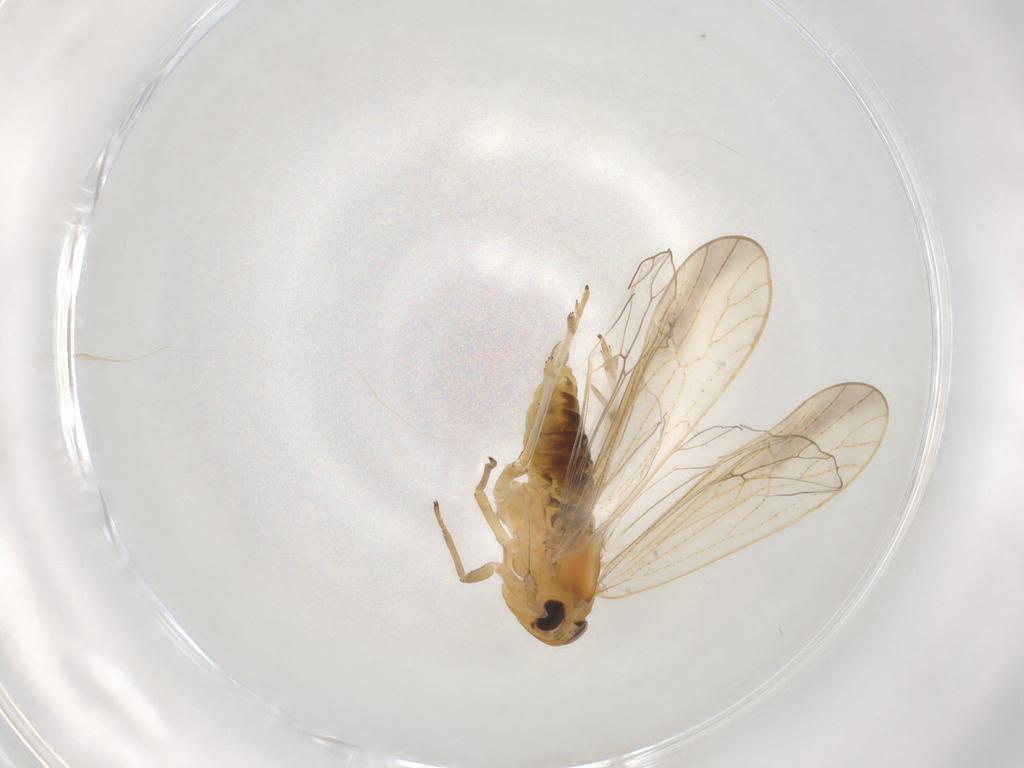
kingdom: Animalia
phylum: Arthropoda
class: Insecta
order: Hemiptera
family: Delphacidae
